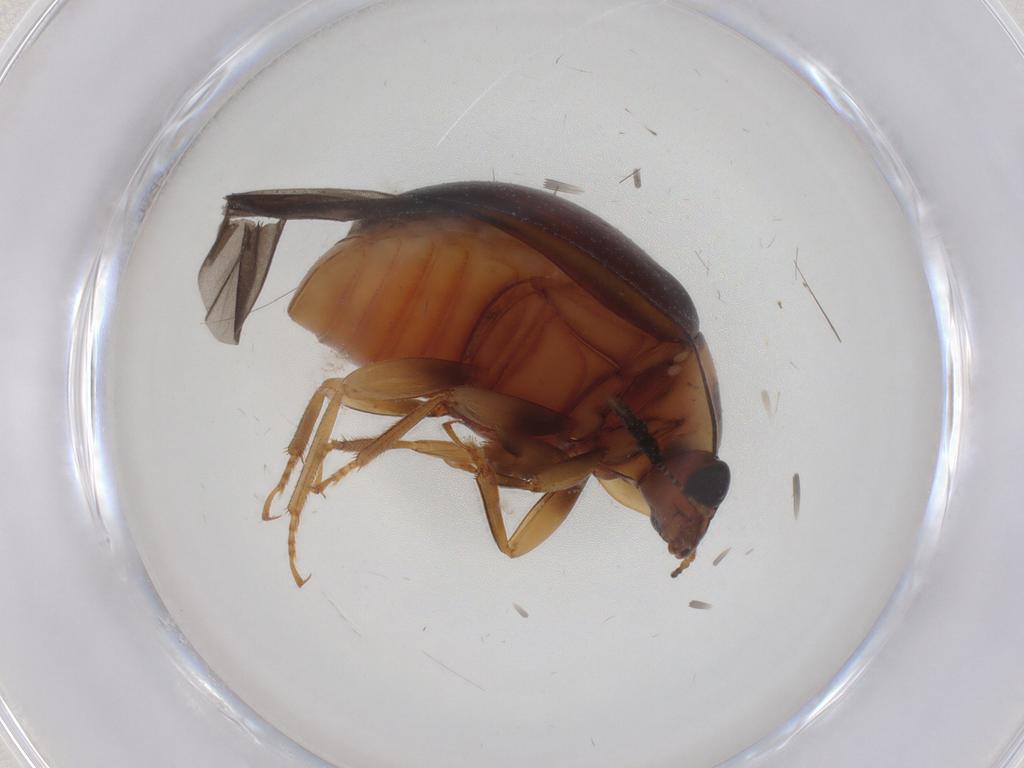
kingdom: Animalia
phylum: Arthropoda
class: Insecta
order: Coleoptera
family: Nitidulidae
